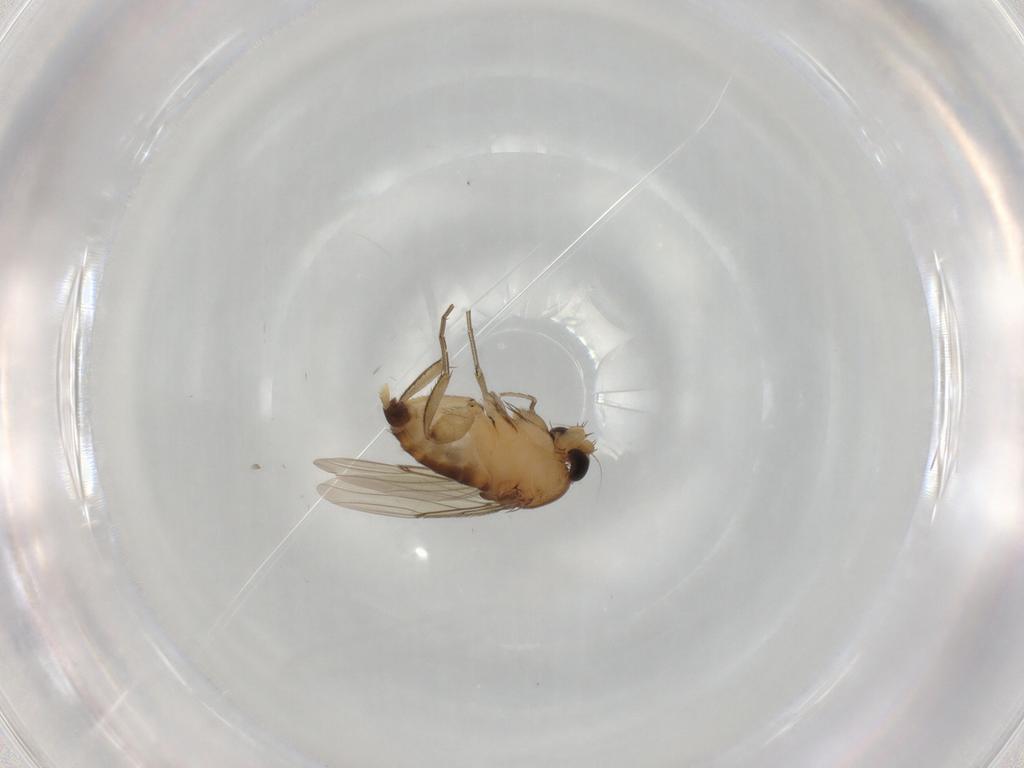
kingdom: Animalia
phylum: Arthropoda
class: Insecta
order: Diptera
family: Phoridae
